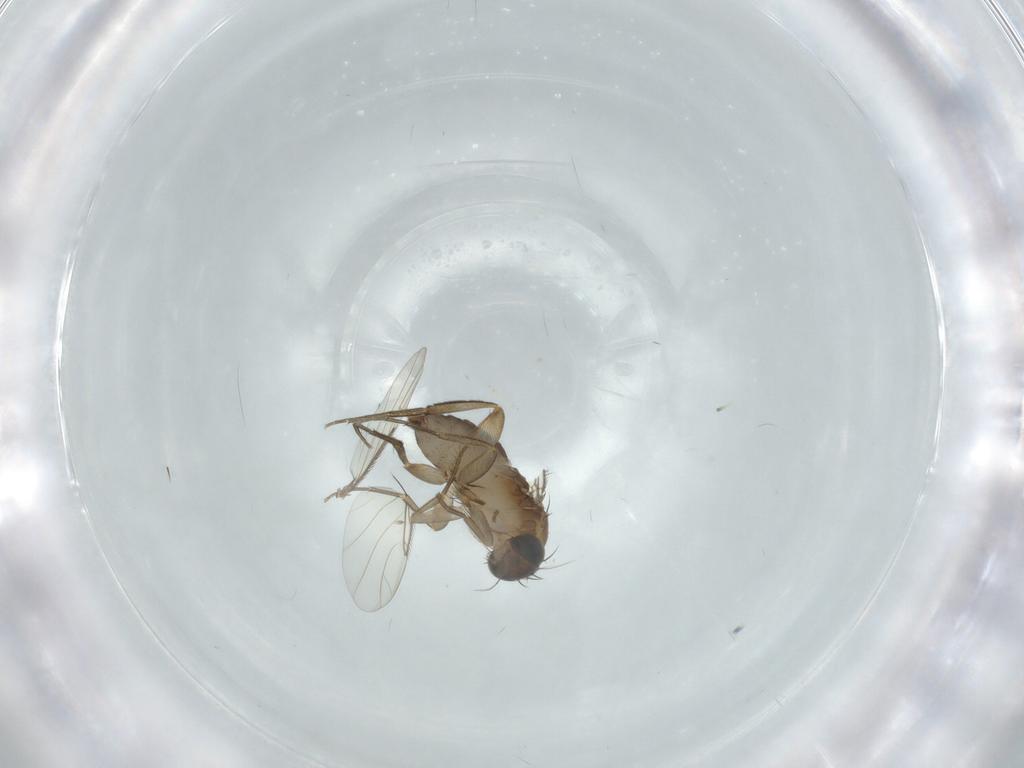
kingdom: Animalia
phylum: Arthropoda
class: Insecta
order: Diptera
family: Phoridae
